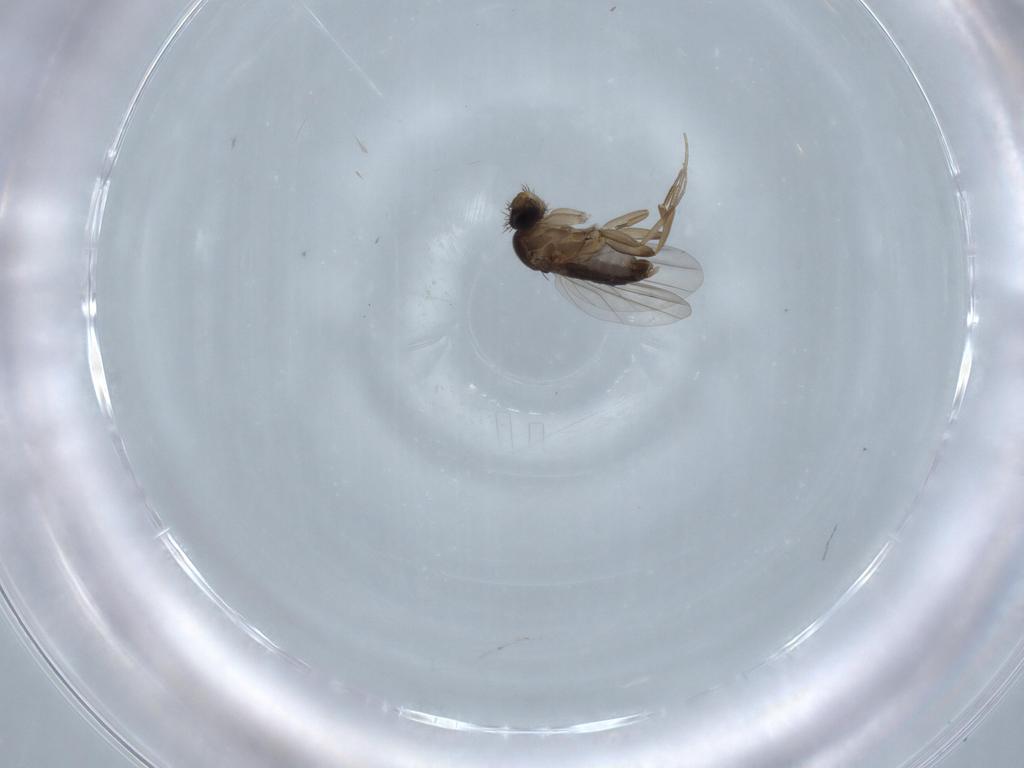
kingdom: Animalia
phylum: Arthropoda
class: Insecta
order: Diptera
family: Phoridae
